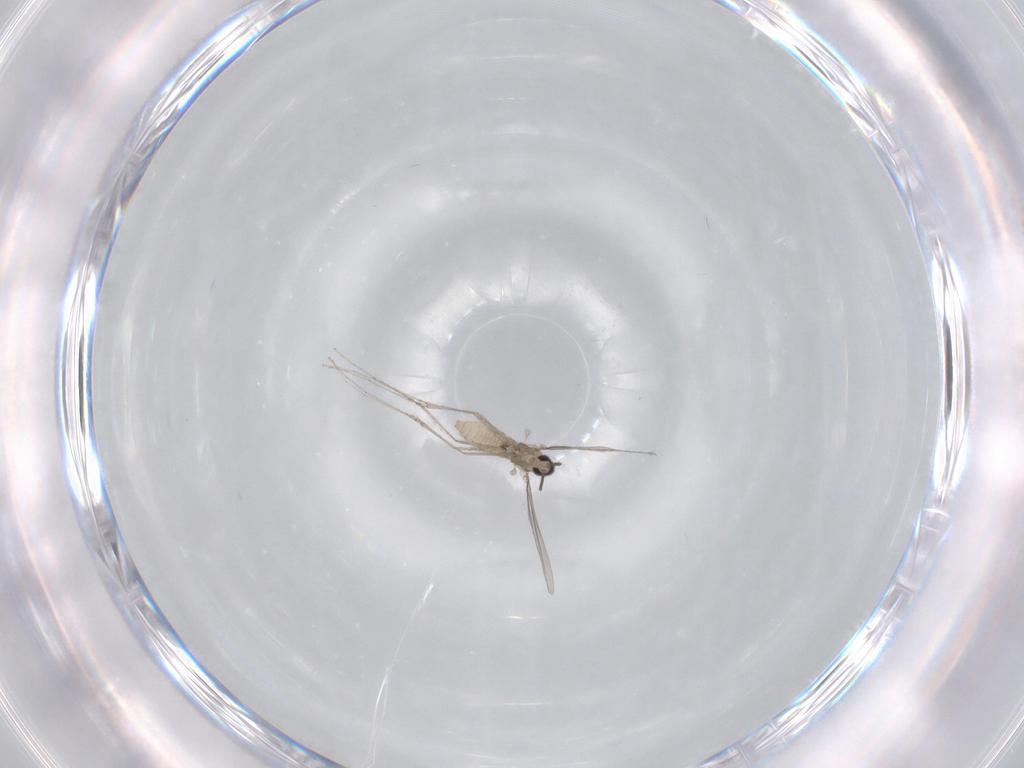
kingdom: Animalia
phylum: Arthropoda
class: Insecta
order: Diptera
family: Cecidomyiidae
